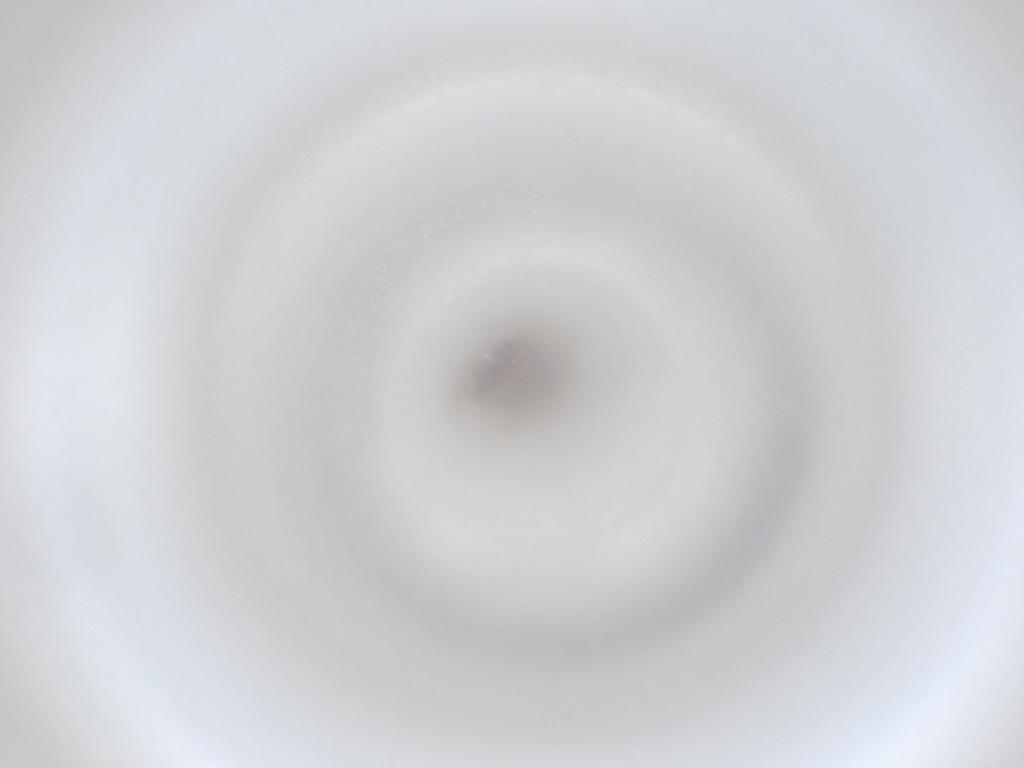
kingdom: Animalia
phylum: Arthropoda
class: Insecta
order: Diptera
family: Cecidomyiidae
